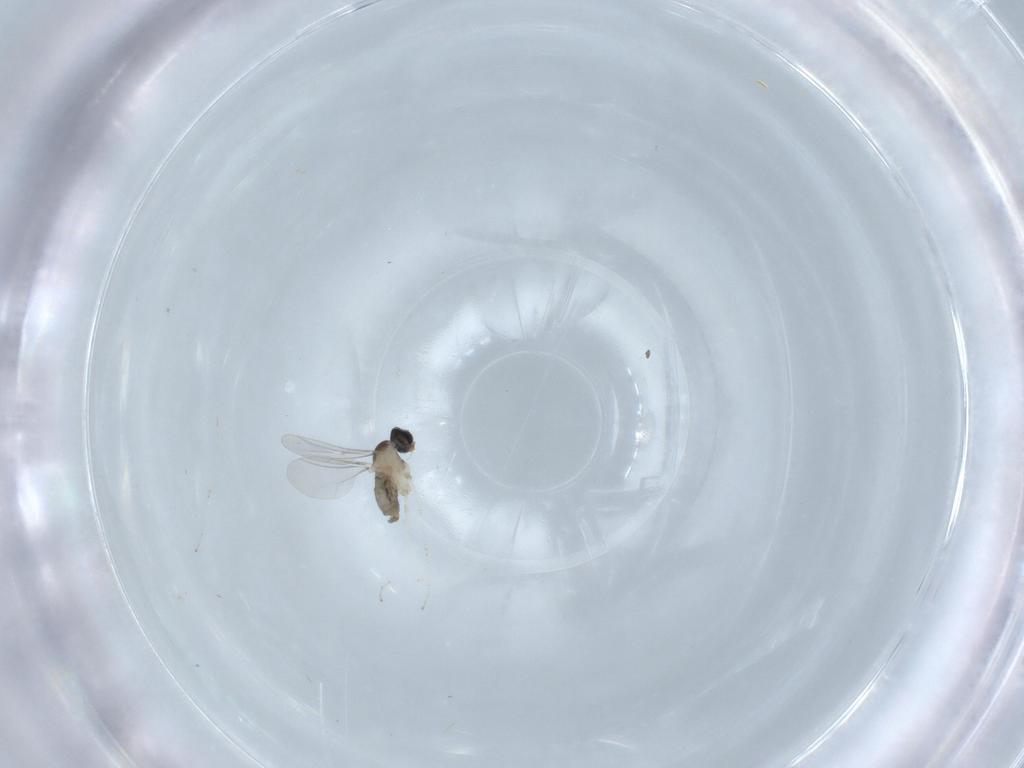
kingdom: Animalia
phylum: Arthropoda
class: Insecta
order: Diptera
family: Cecidomyiidae
